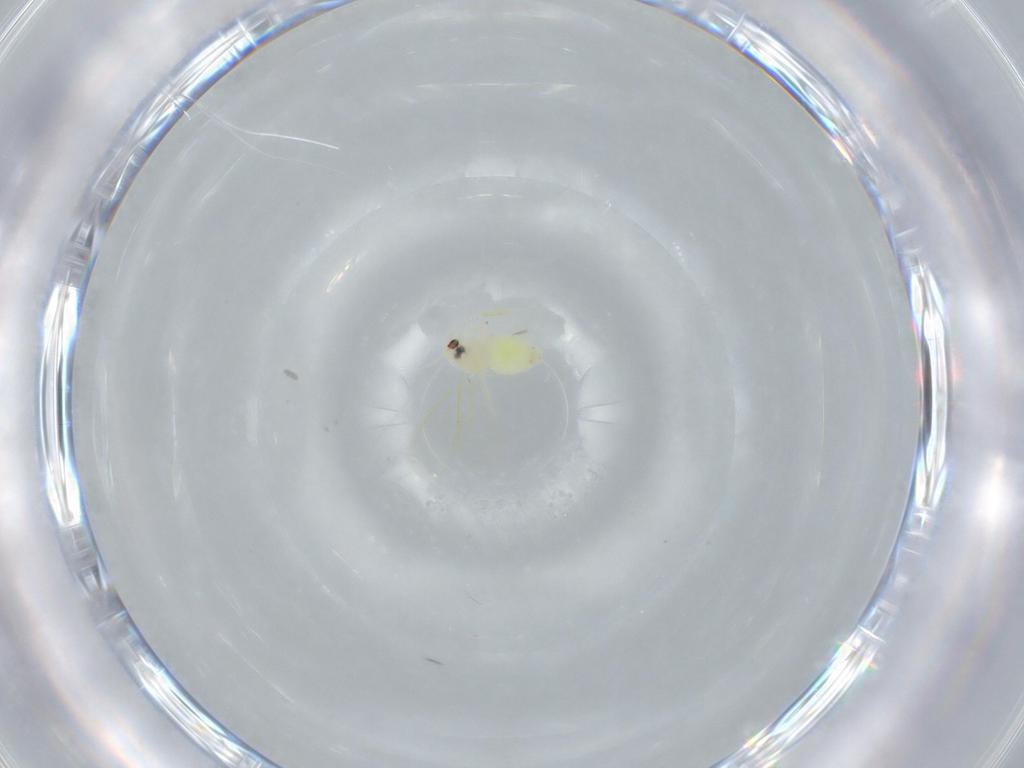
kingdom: Animalia
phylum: Arthropoda
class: Insecta
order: Hemiptera
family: Aleyrodidae
